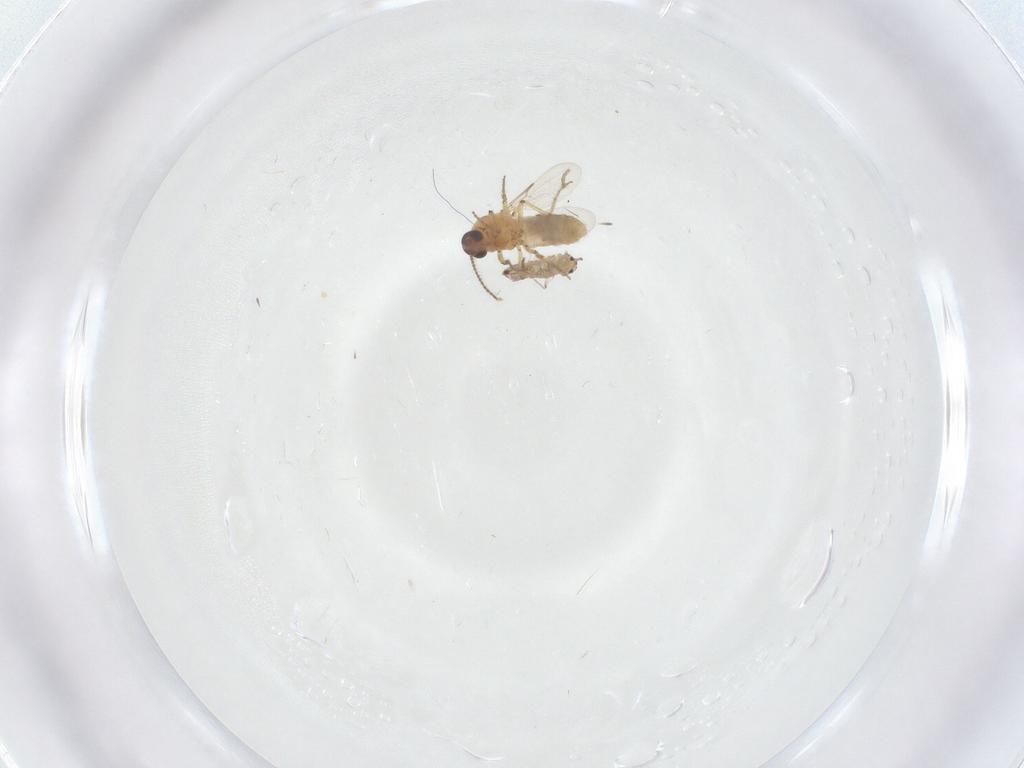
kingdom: Animalia
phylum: Arthropoda
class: Insecta
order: Diptera
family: Ceratopogonidae
